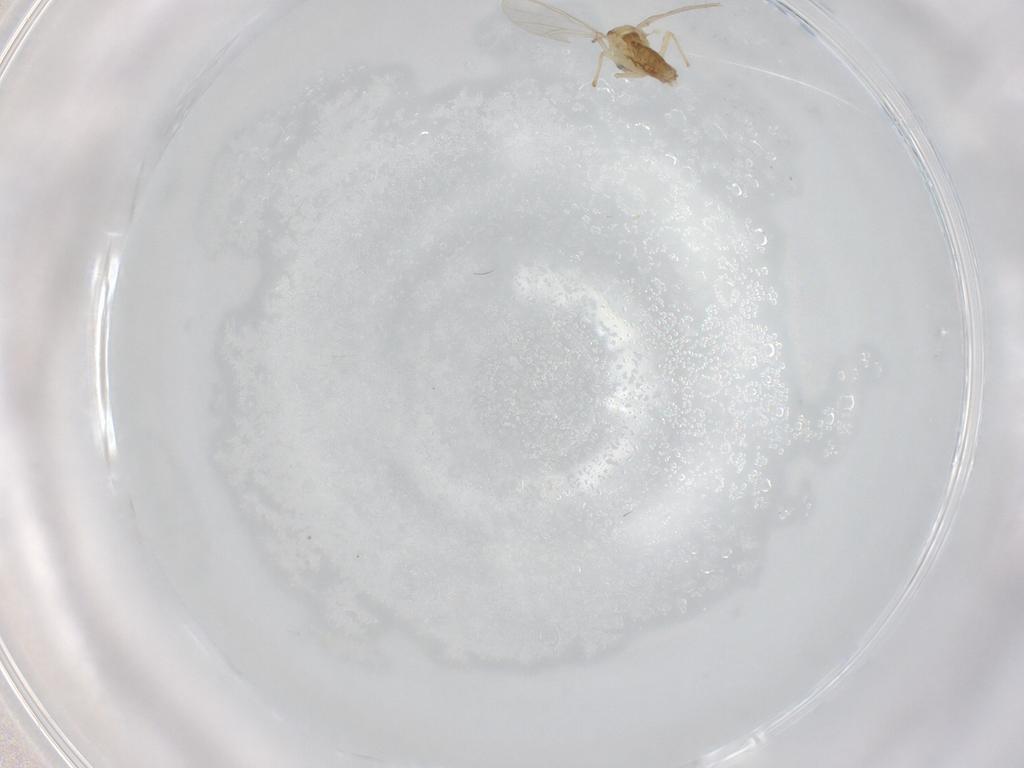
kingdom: Animalia
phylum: Arthropoda
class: Insecta
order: Diptera
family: Chironomidae
